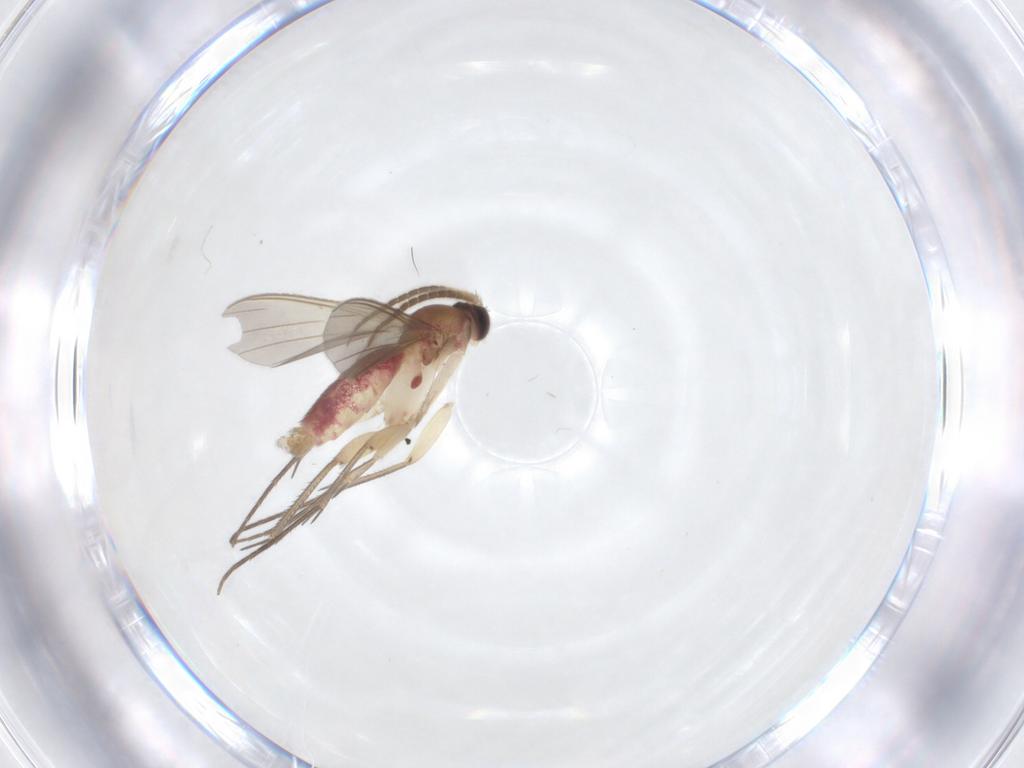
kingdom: Animalia
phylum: Arthropoda
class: Insecta
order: Diptera
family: Mycetophilidae
